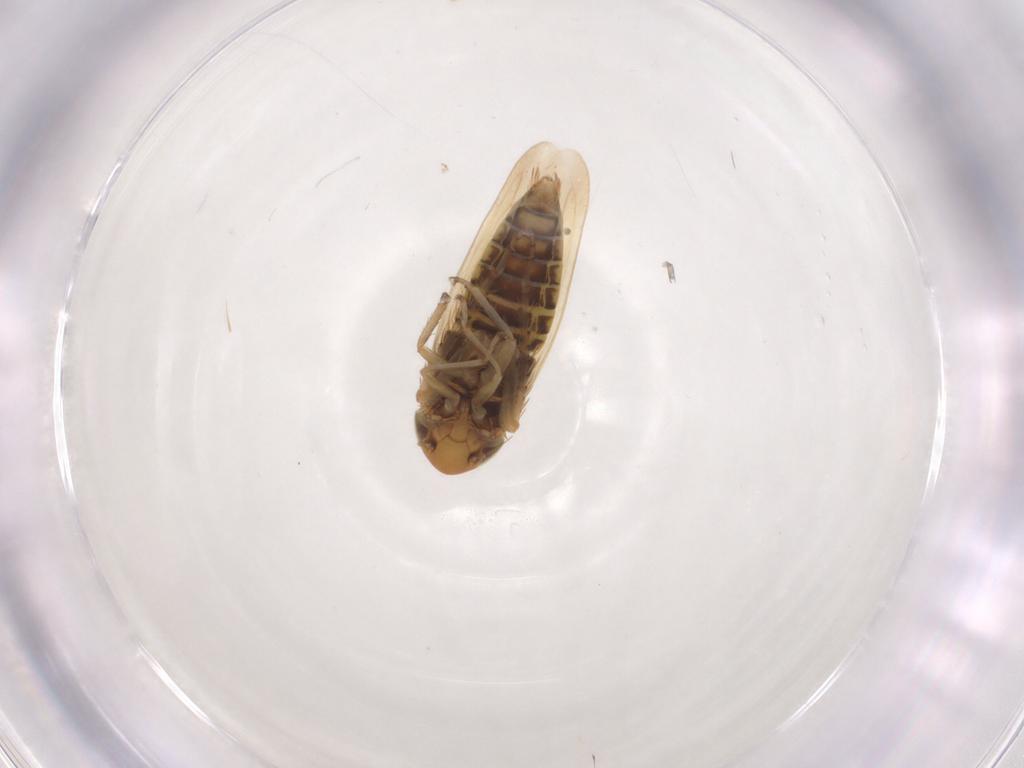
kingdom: Animalia
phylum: Arthropoda
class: Insecta
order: Hemiptera
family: Cicadellidae
